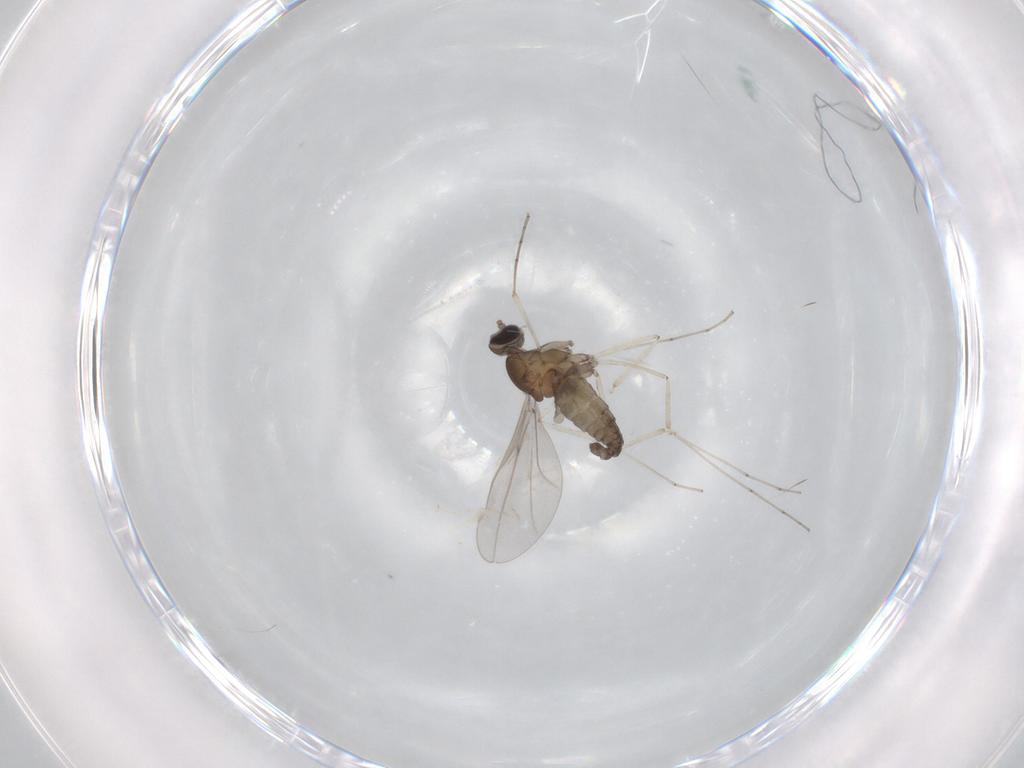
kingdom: Animalia
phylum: Arthropoda
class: Insecta
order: Diptera
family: Cecidomyiidae
